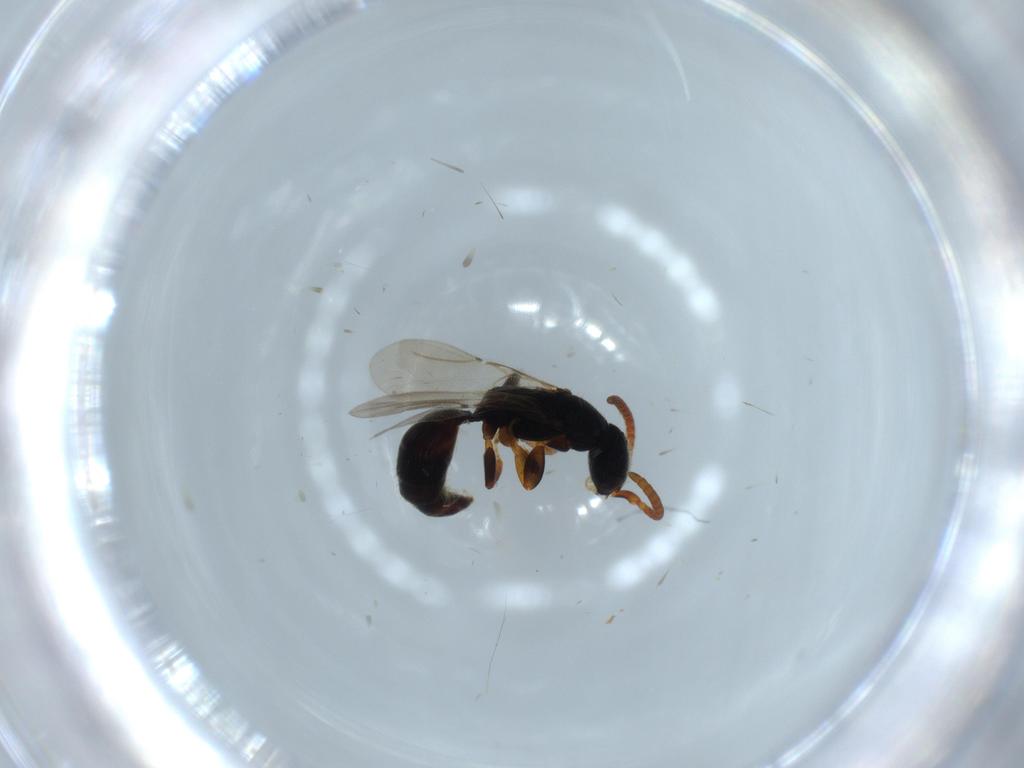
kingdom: Animalia
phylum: Arthropoda
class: Insecta
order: Hymenoptera
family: Bethylidae
